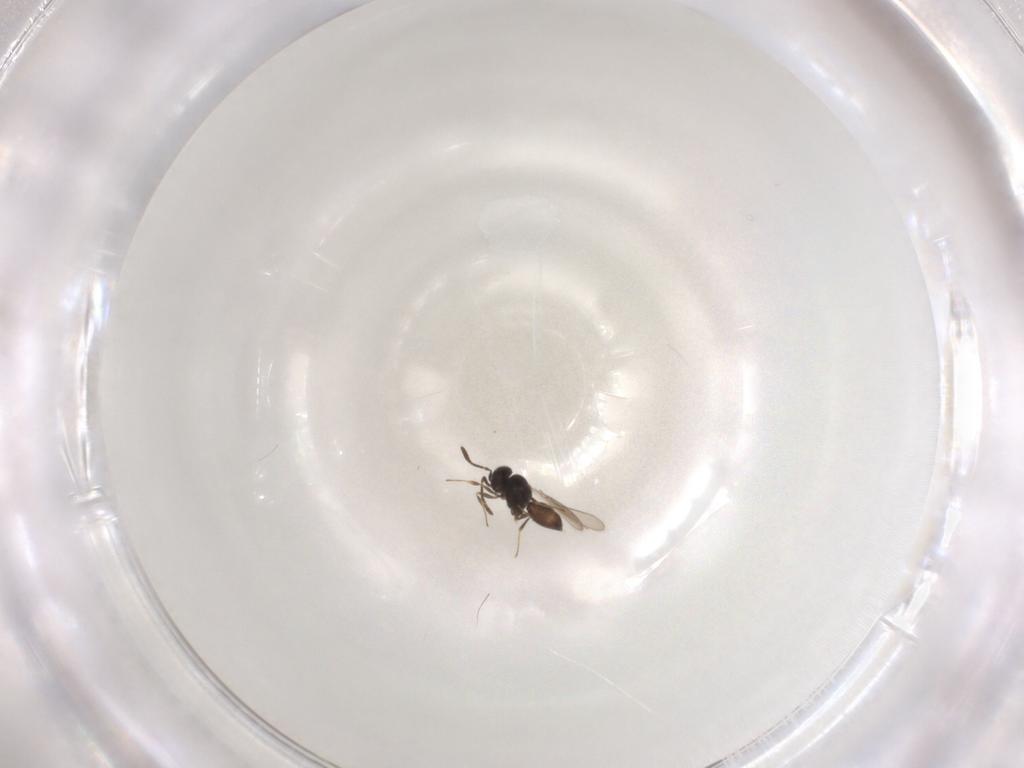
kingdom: Animalia
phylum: Arthropoda
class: Insecta
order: Hymenoptera
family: Scelionidae
